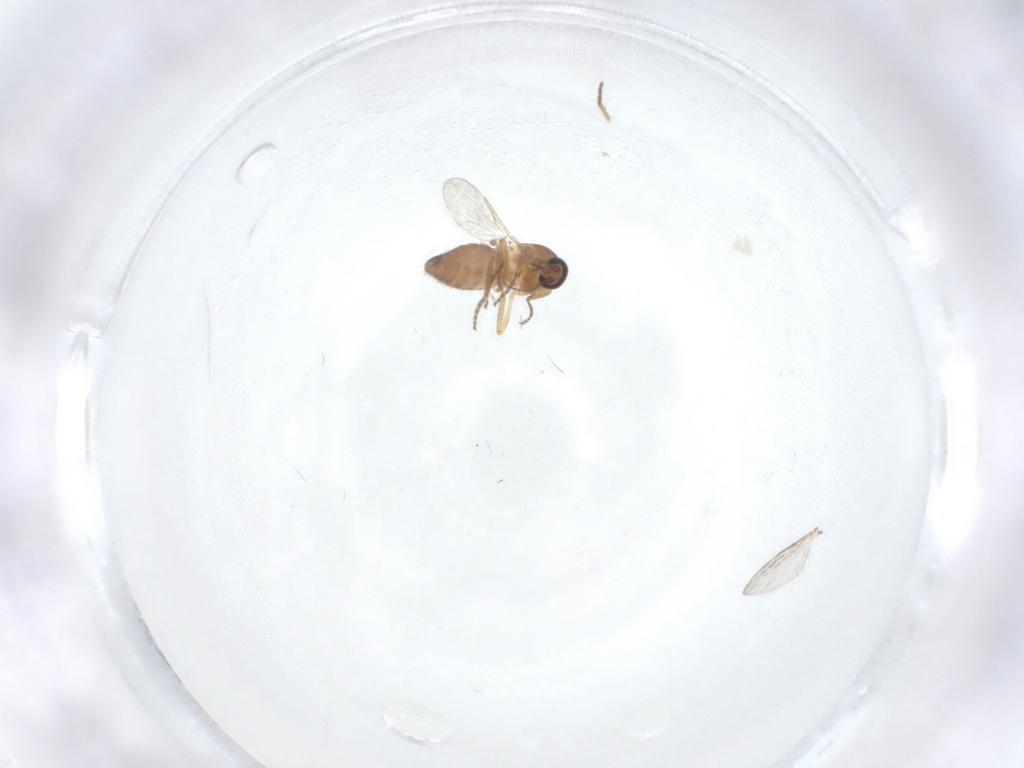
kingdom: Animalia
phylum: Arthropoda
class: Insecta
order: Diptera
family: Ceratopogonidae
